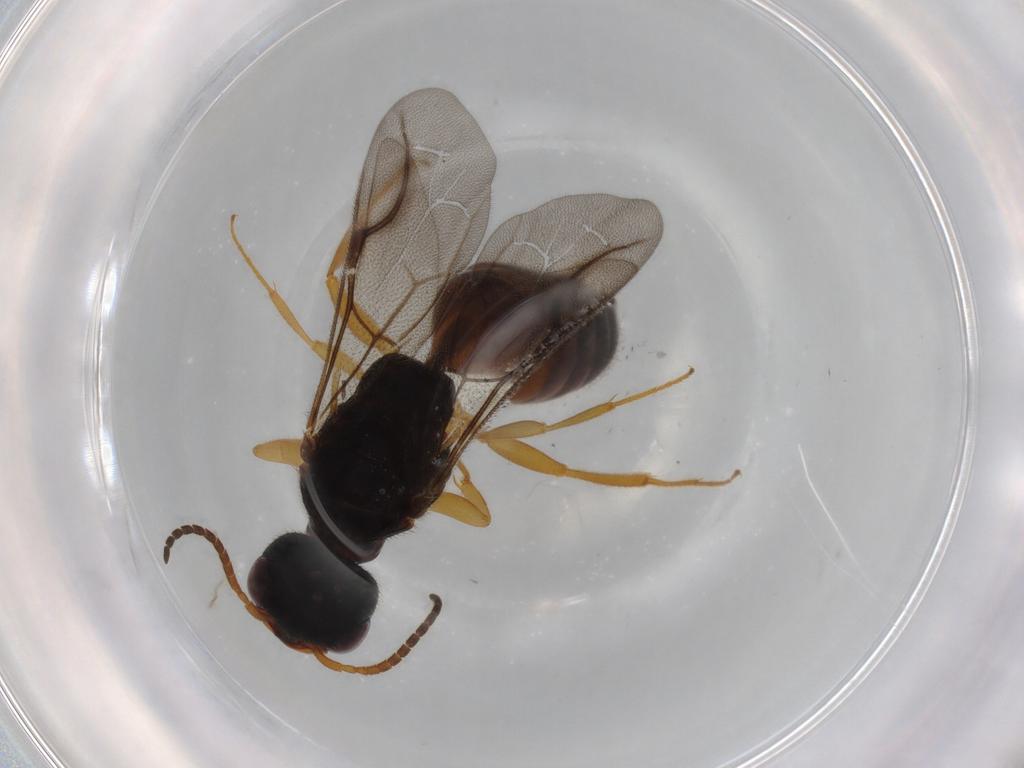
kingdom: Animalia
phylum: Arthropoda
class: Insecta
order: Hymenoptera
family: Bethylidae
